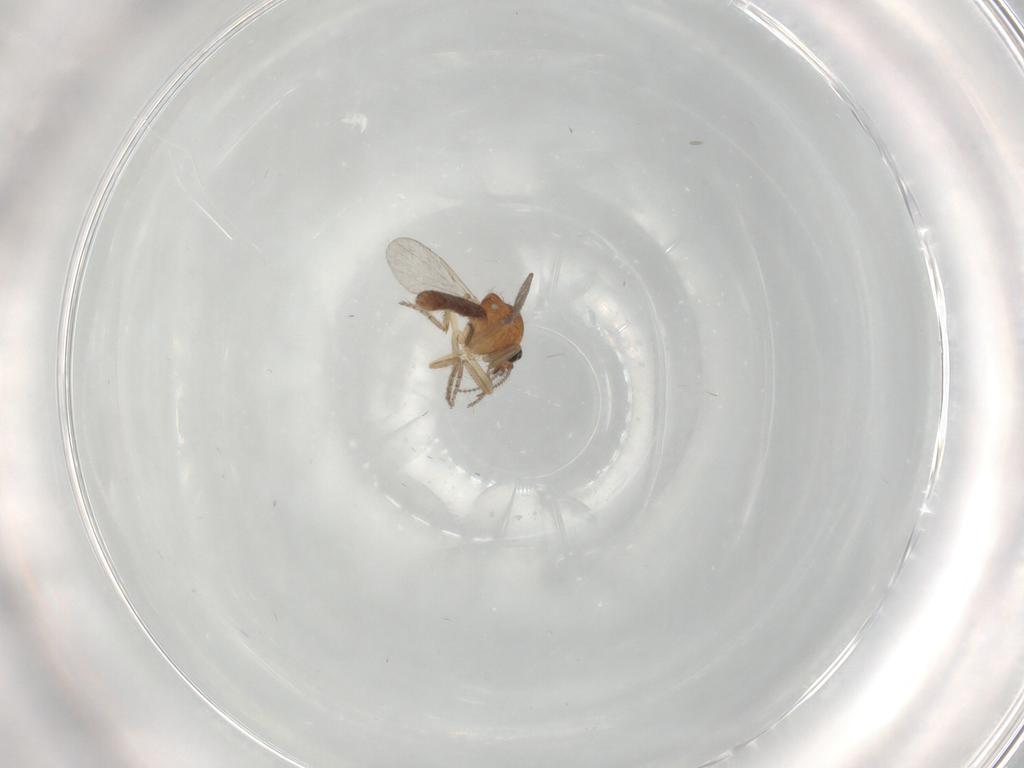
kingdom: Animalia
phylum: Arthropoda
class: Insecta
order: Diptera
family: Ceratopogonidae
